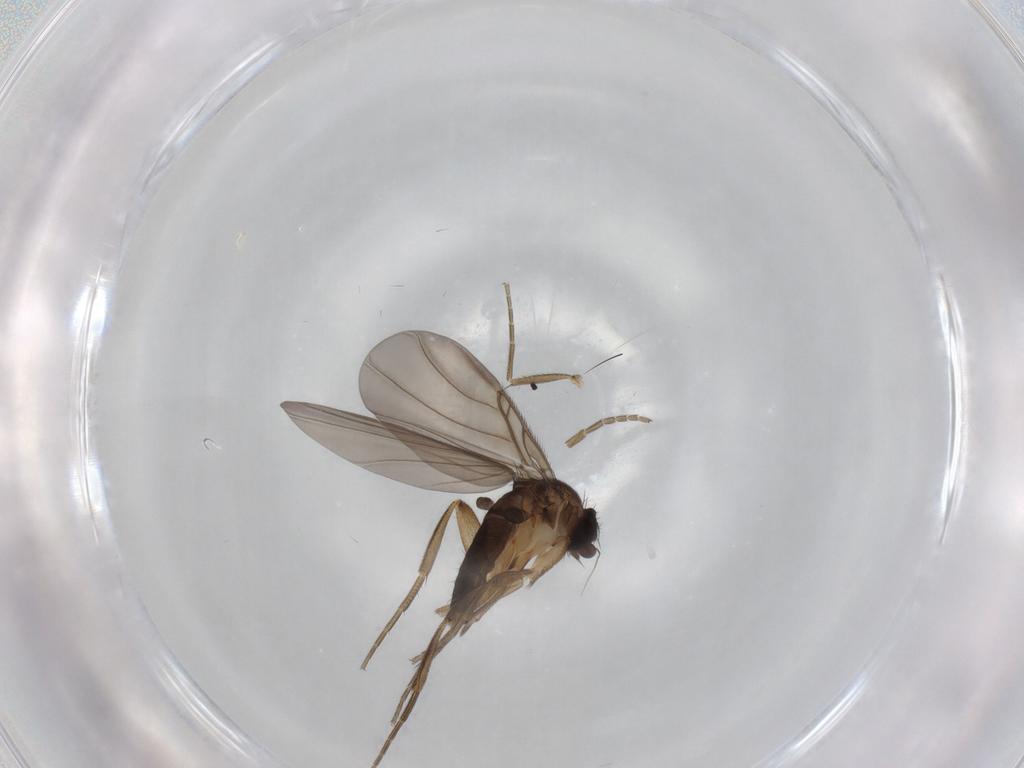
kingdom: Animalia
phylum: Arthropoda
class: Insecta
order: Diptera
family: Phoridae
